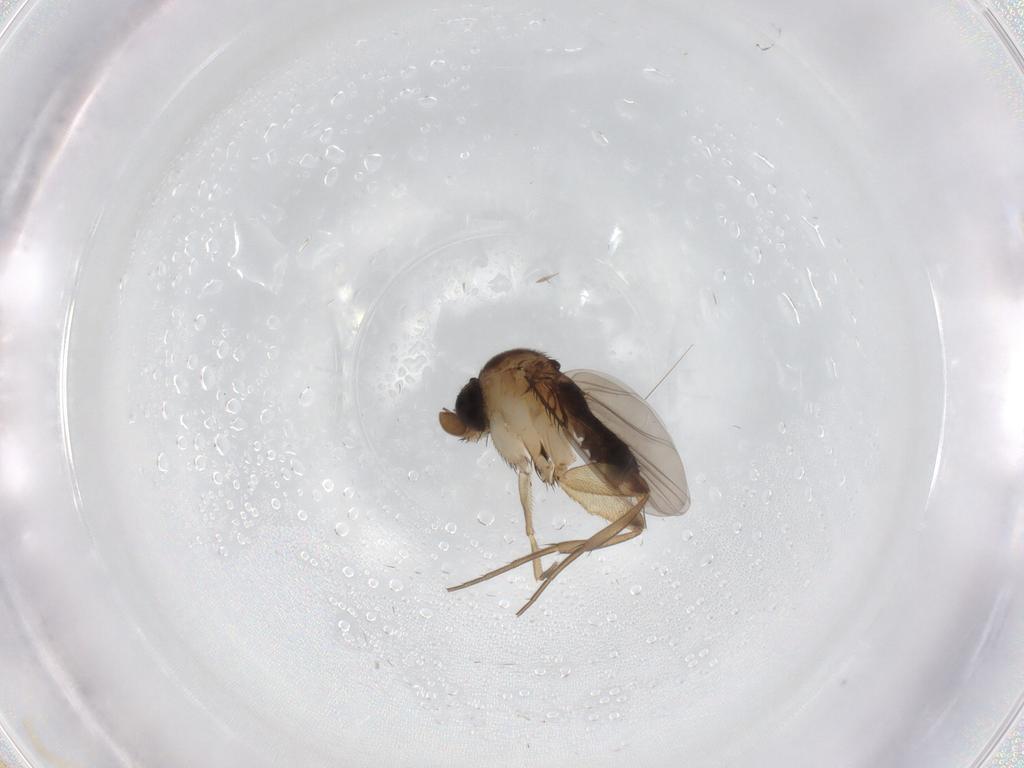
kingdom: Animalia
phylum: Arthropoda
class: Insecta
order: Diptera
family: Phoridae
